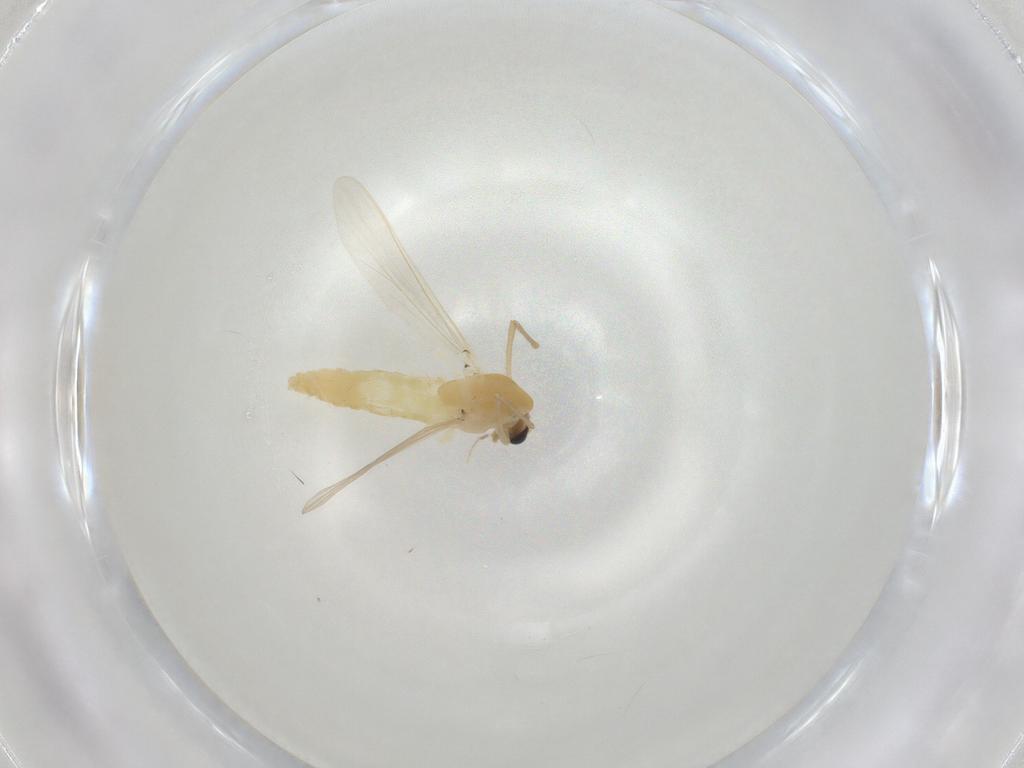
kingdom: Animalia
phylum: Arthropoda
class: Insecta
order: Diptera
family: Chironomidae
